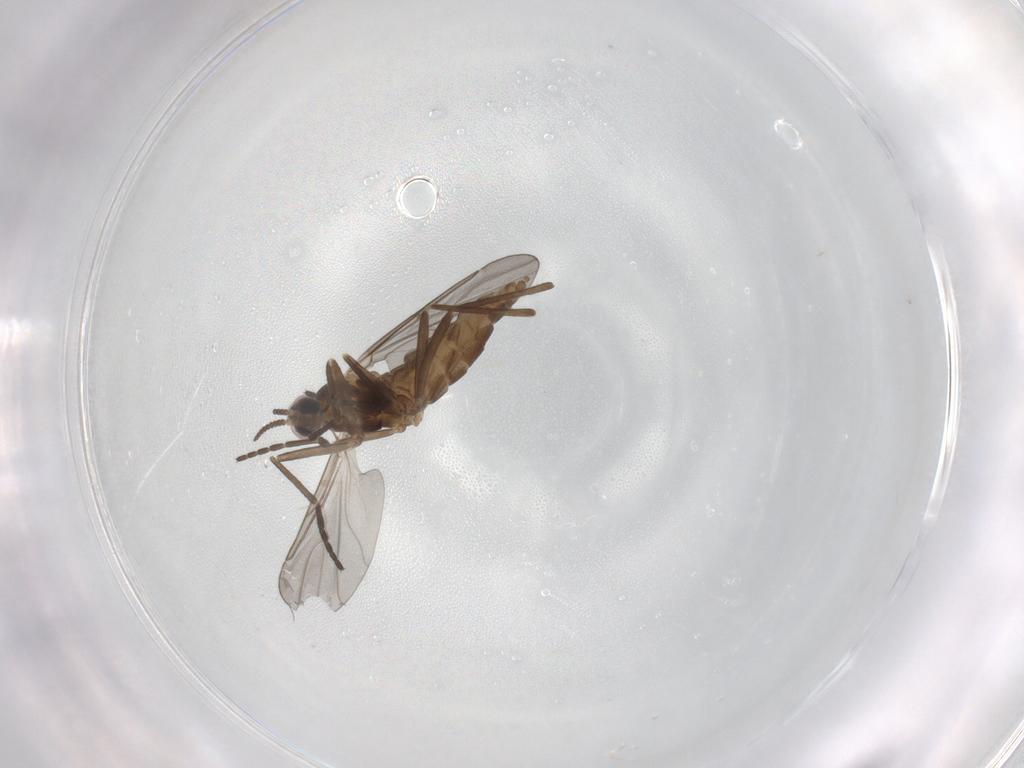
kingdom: Animalia
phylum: Arthropoda
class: Insecta
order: Diptera
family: Cecidomyiidae
